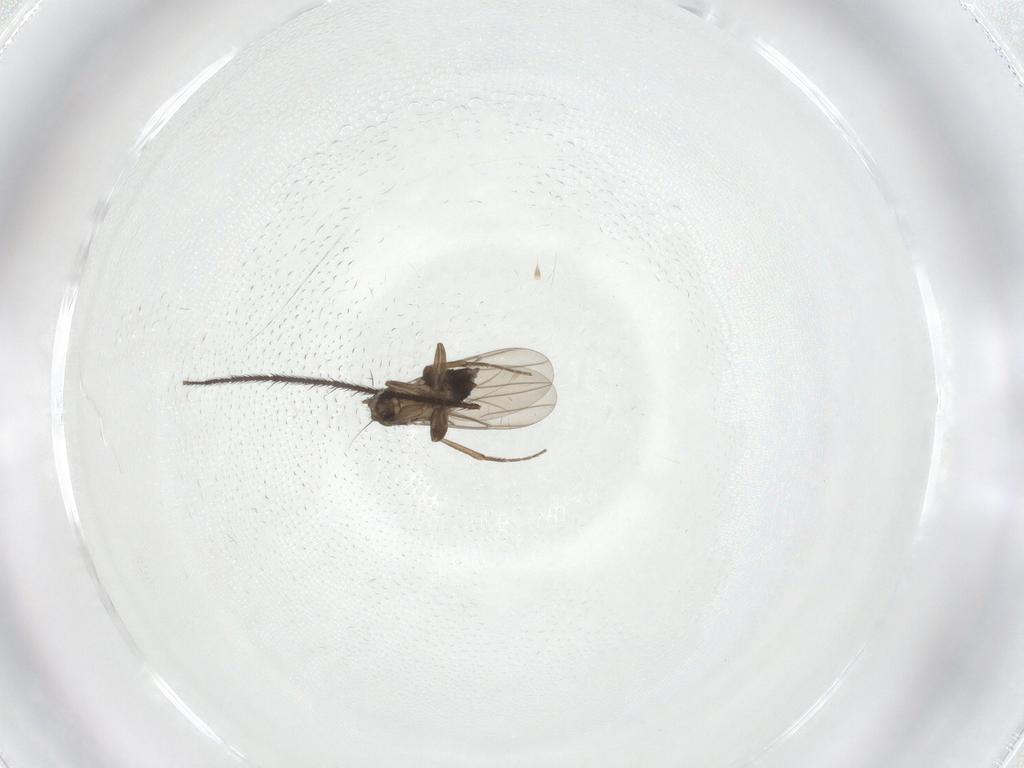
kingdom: Animalia
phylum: Arthropoda
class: Insecta
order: Diptera
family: Ditomyiidae
